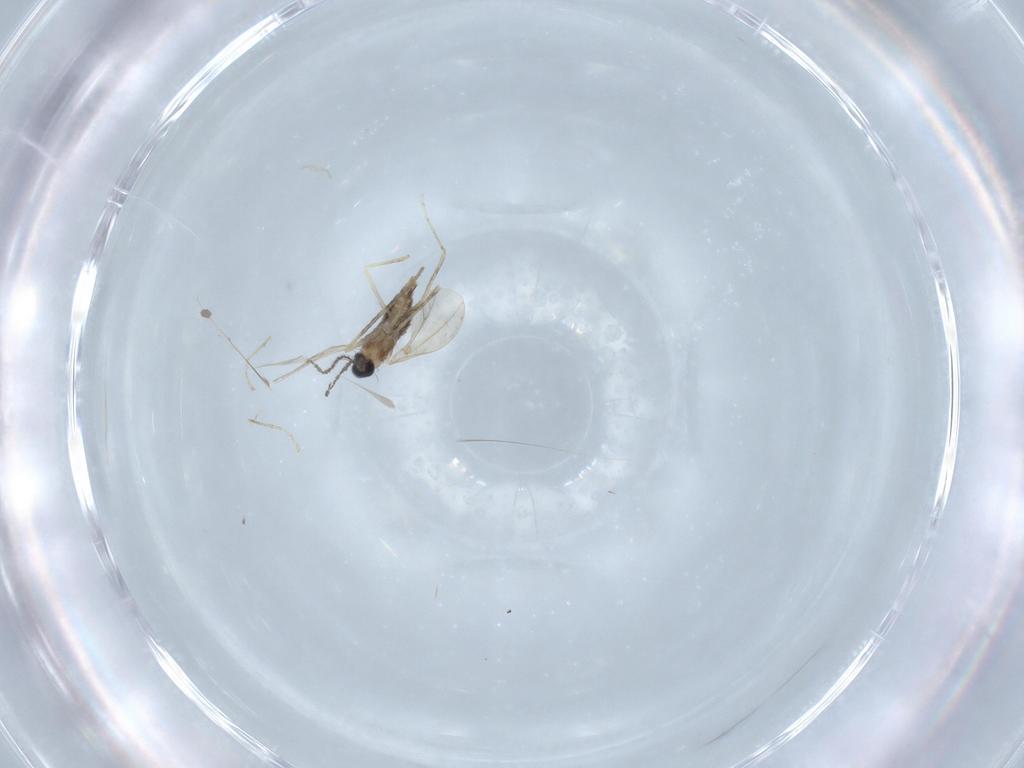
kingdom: Animalia
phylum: Arthropoda
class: Insecta
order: Diptera
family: Cecidomyiidae
